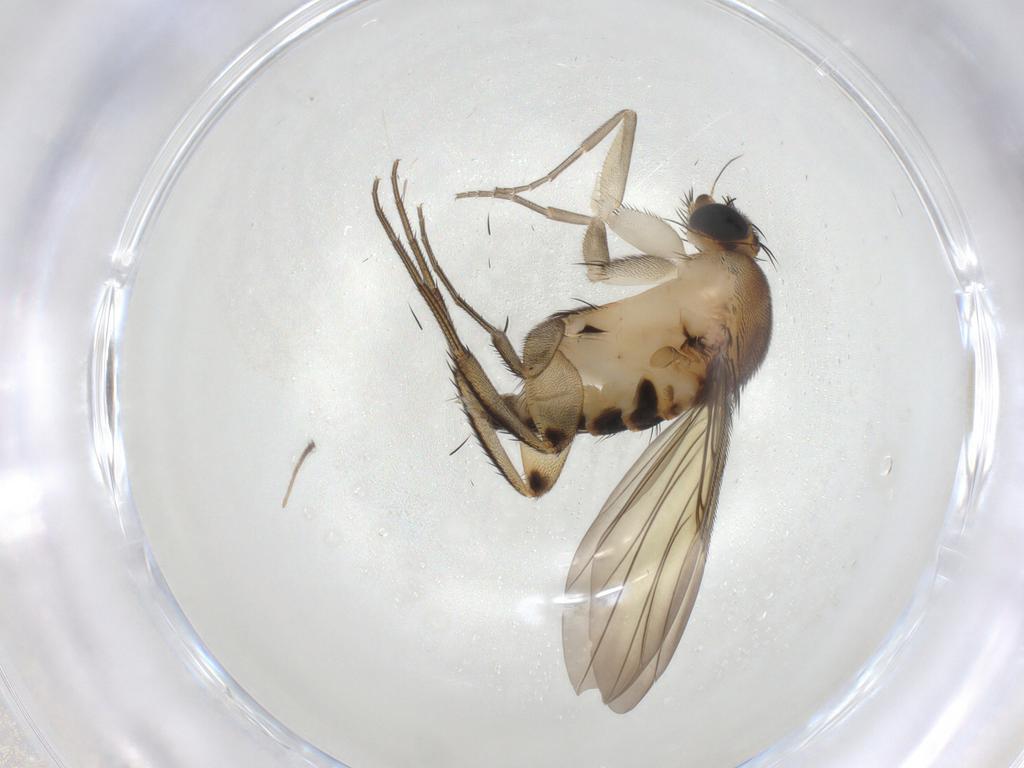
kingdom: Animalia
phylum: Arthropoda
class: Insecta
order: Diptera
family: Phoridae
